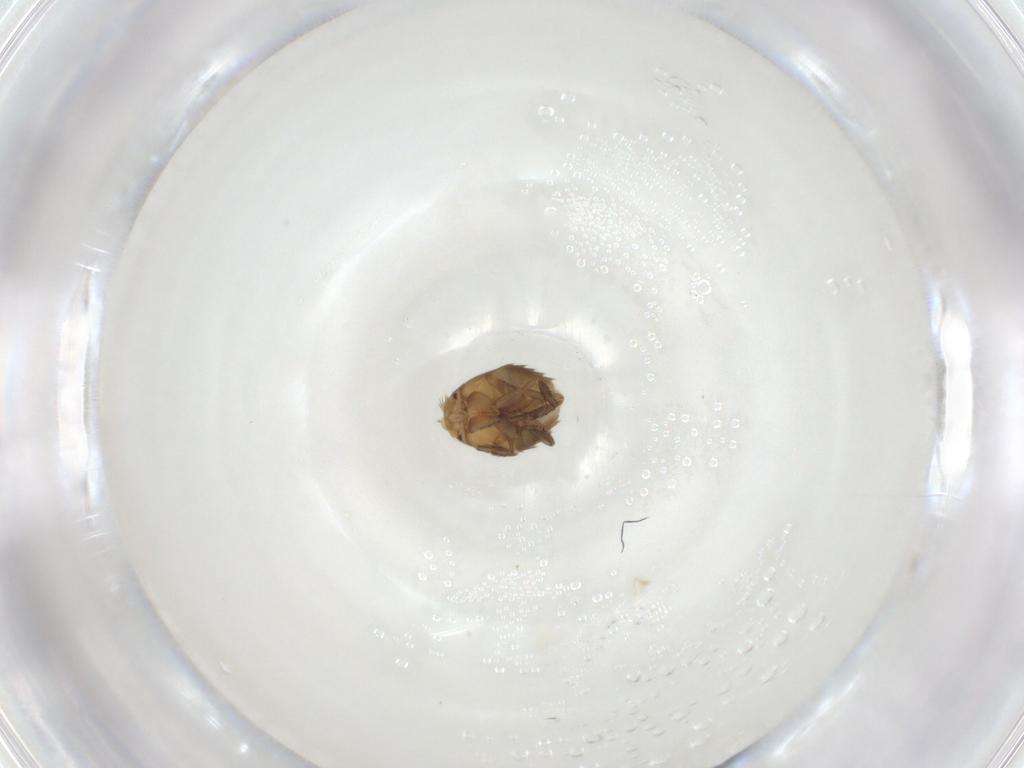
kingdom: Animalia
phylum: Arthropoda
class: Insecta
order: Diptera
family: Phoridae
